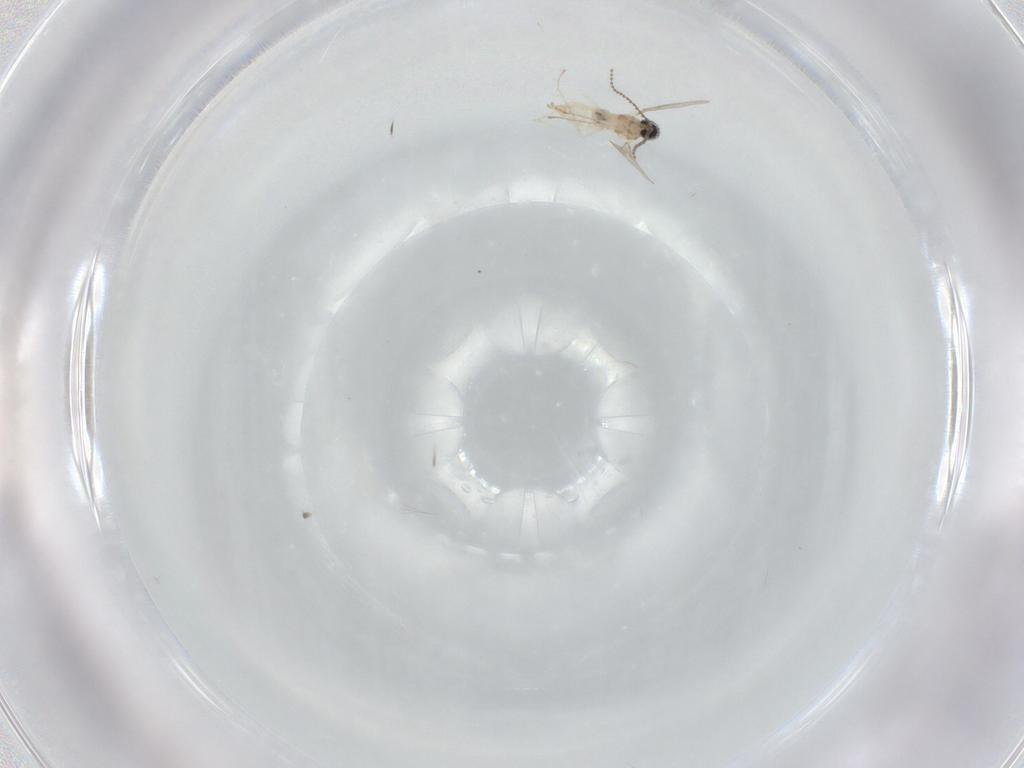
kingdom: Animalia
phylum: Arthropoda
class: Insecta
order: Diptera
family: Cecidomyiidae
